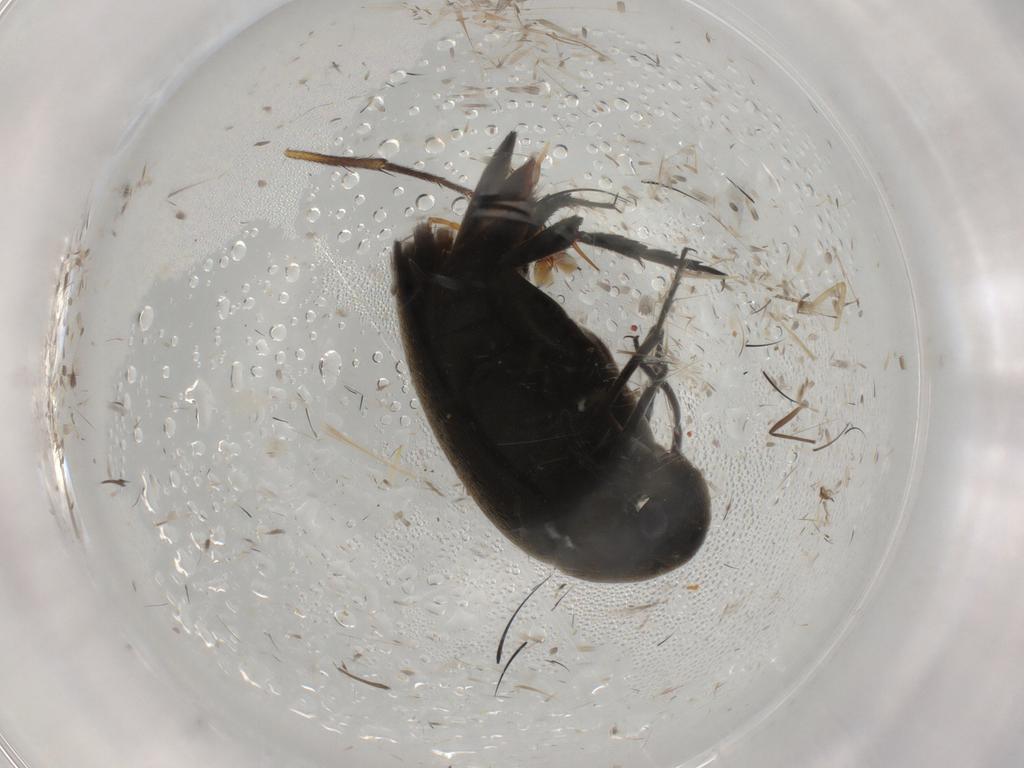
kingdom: Animalia
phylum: Arthropoda
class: Insecta
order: Coleoptera
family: Mordellidae
